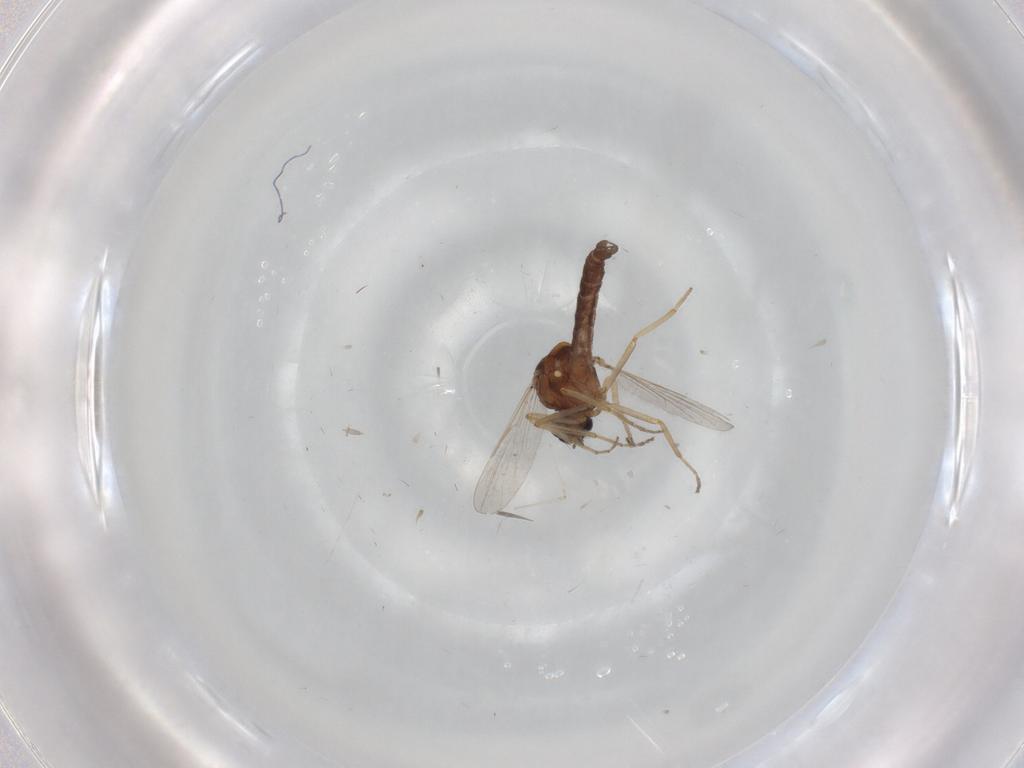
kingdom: Animalia
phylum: Arthropoda
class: Insecta
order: Diptera
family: Ceratopogonidae
